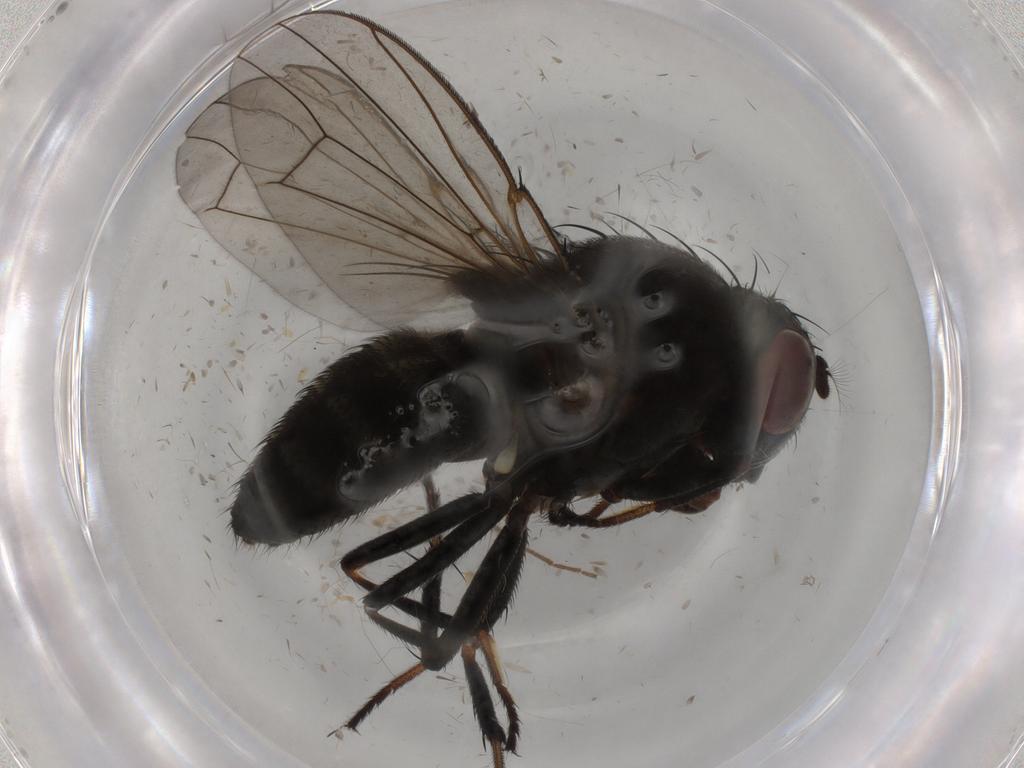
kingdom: Animalia
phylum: Arthropoda
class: Insecta
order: Diptera
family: Ephydridae
